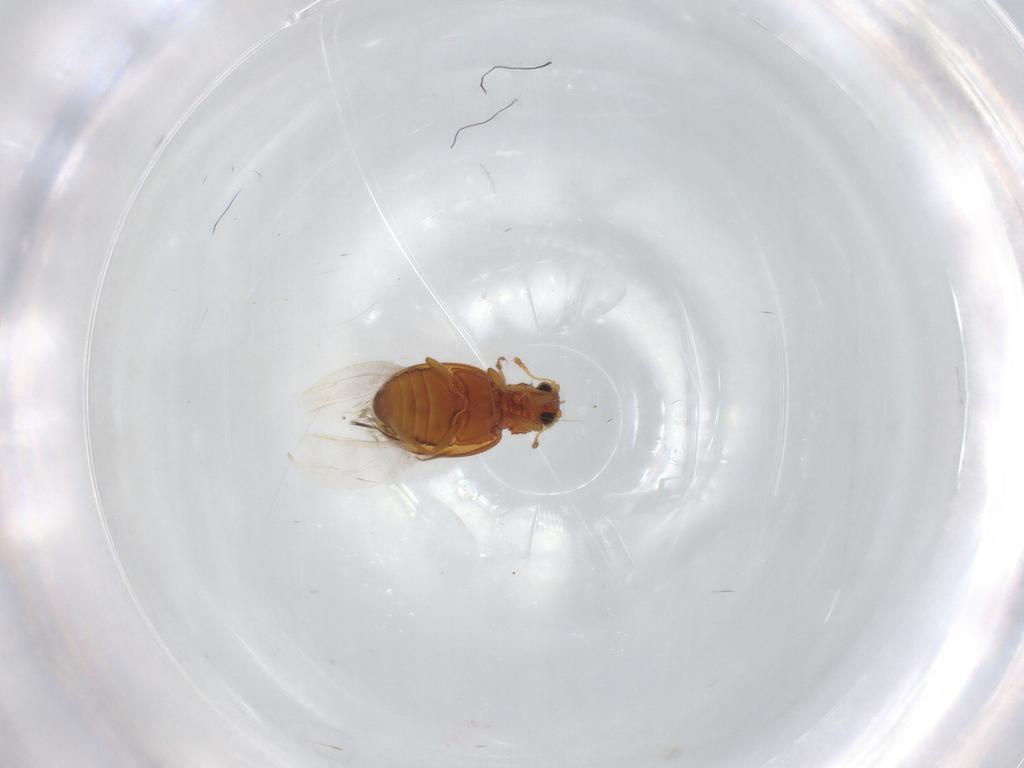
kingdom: Animalia
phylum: Arthropoda
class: Insecta
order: Coleoptera
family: Latridiidae
